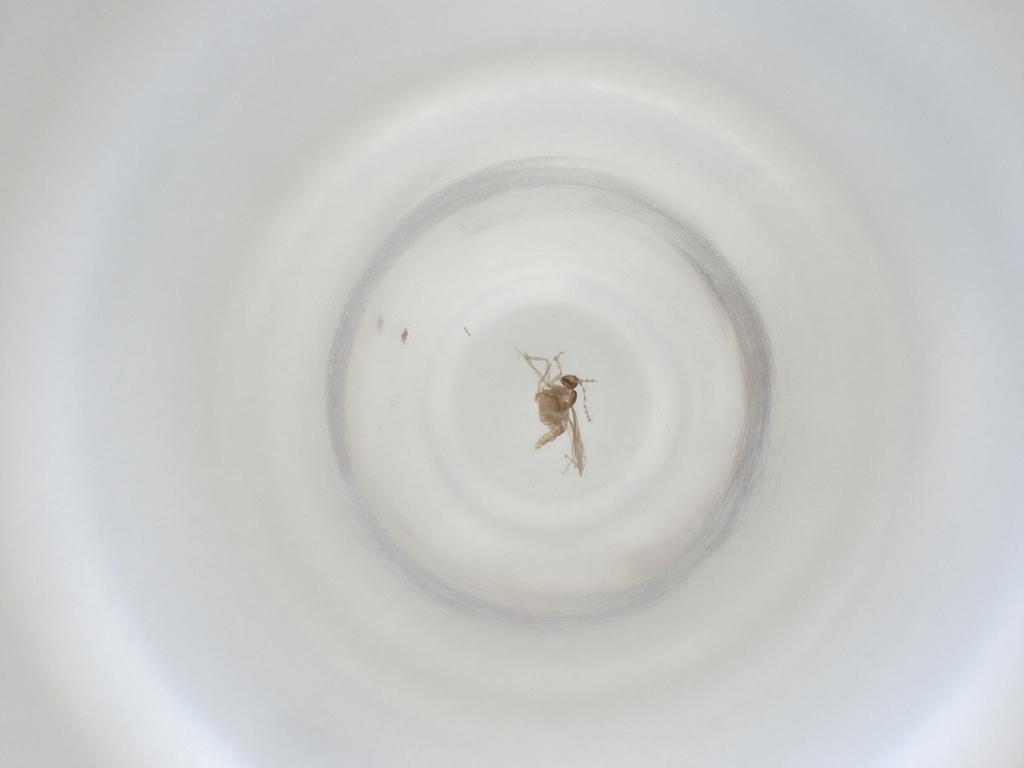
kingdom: Animalia
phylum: Arthropoda
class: Insecta
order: Diptera
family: Cecidomyiidae
